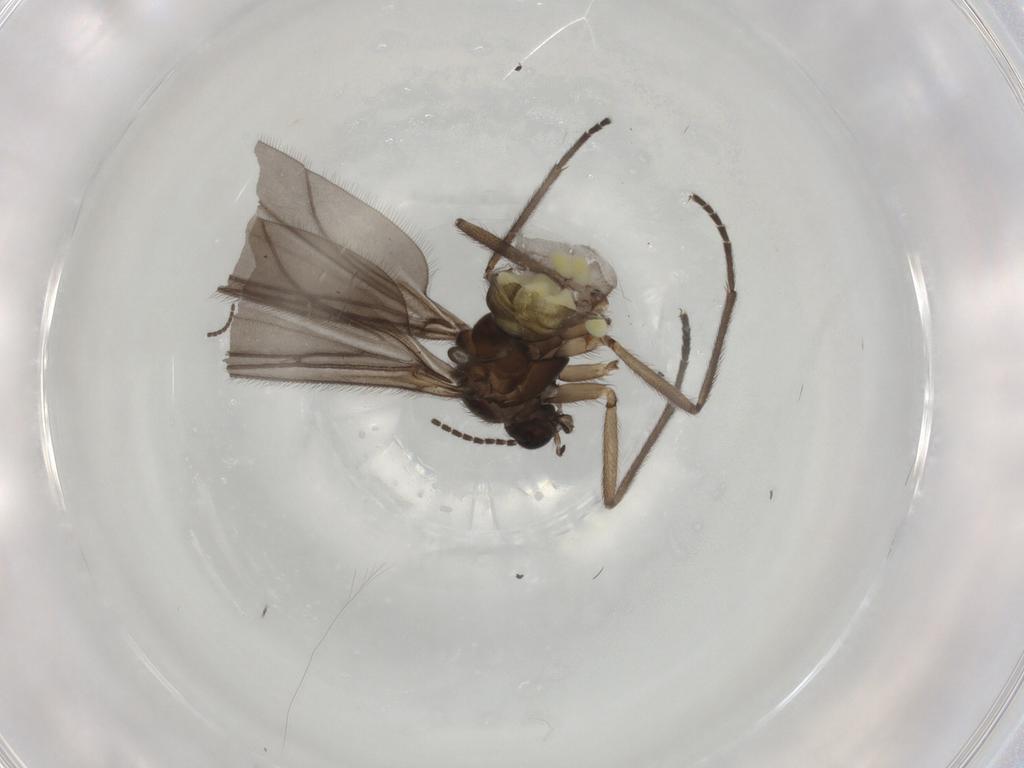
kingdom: Animalia
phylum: Arthropoda
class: Insecta
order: Diptera
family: Sciaridae
